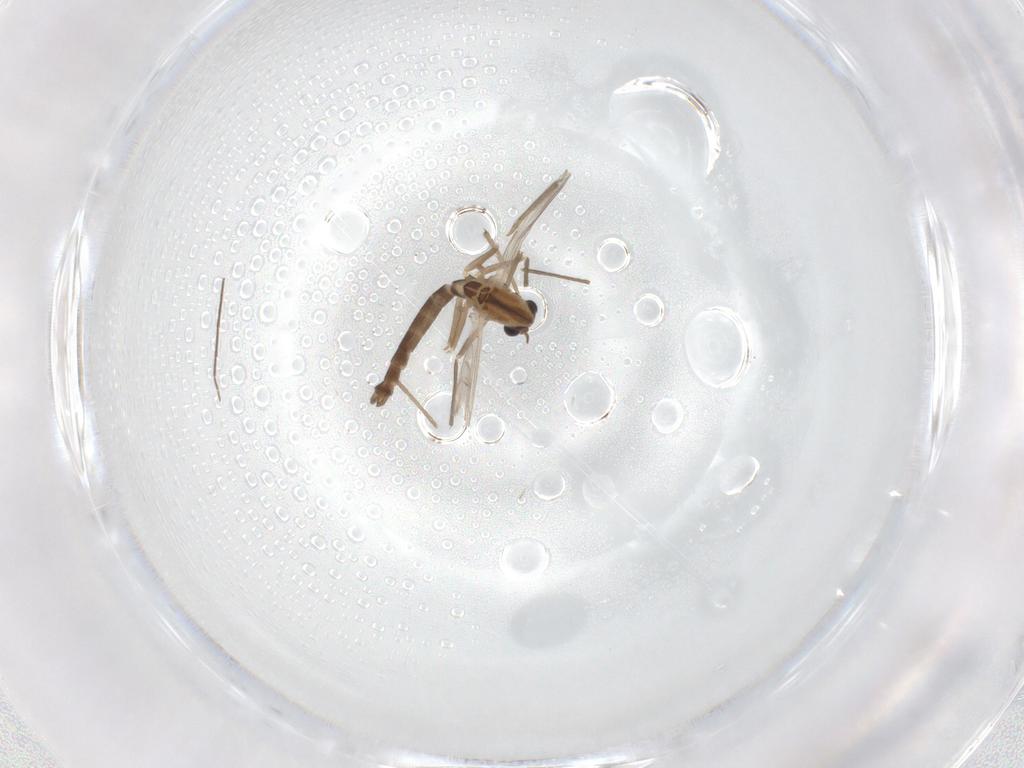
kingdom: Animalia
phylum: Arthropoda
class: Insecta
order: Diptera
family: Chironomidae
